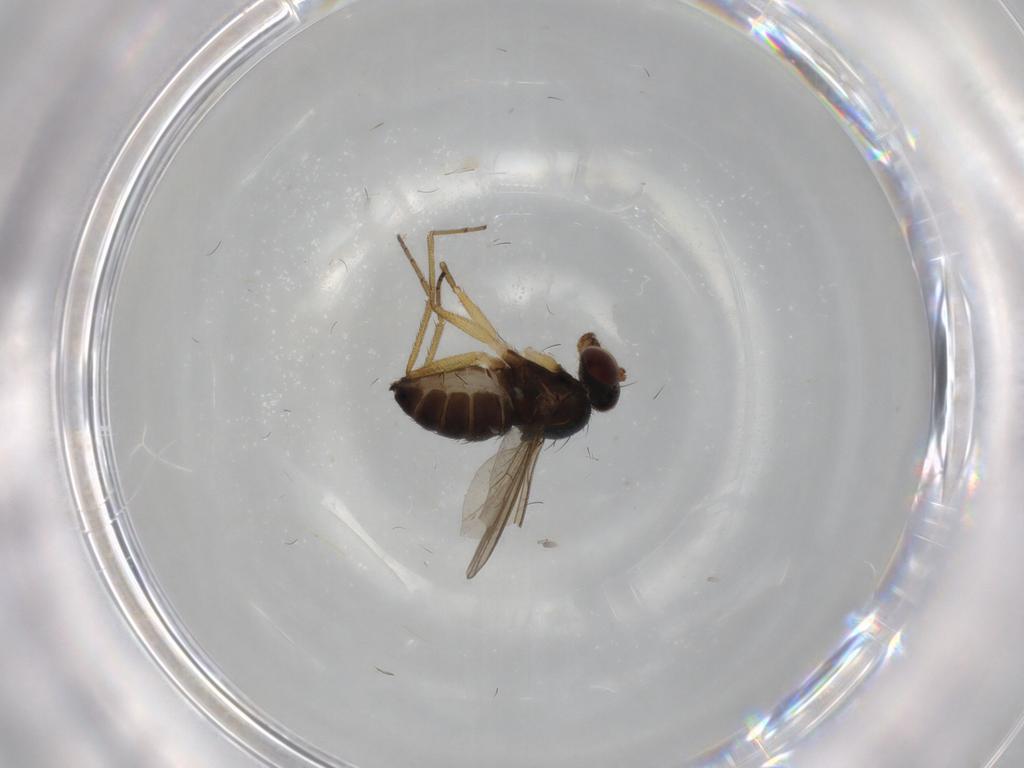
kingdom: Animalia
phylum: Arthropoda
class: Insecta
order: Diptera
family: Dolichopodidae
